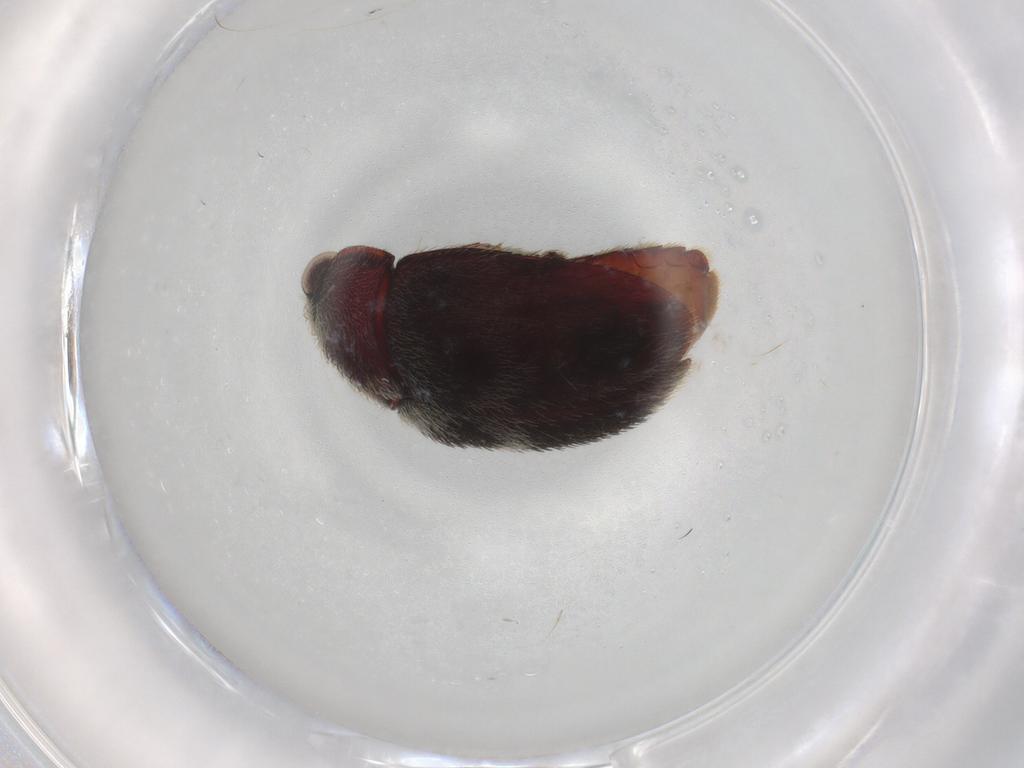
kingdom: Animalia
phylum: Arthropoda
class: Insecta
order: Coleoptera
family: Dermestidae
